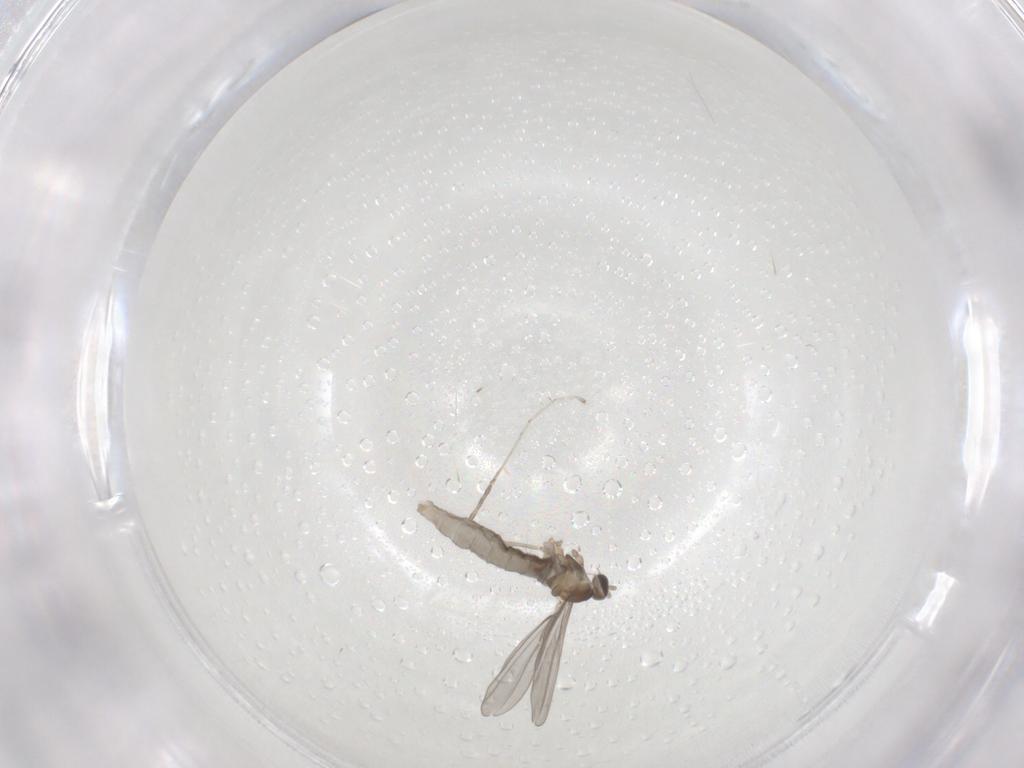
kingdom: Animalia
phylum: Arthropoda
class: Insecta
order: Diptera
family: Cecidomyiidae
